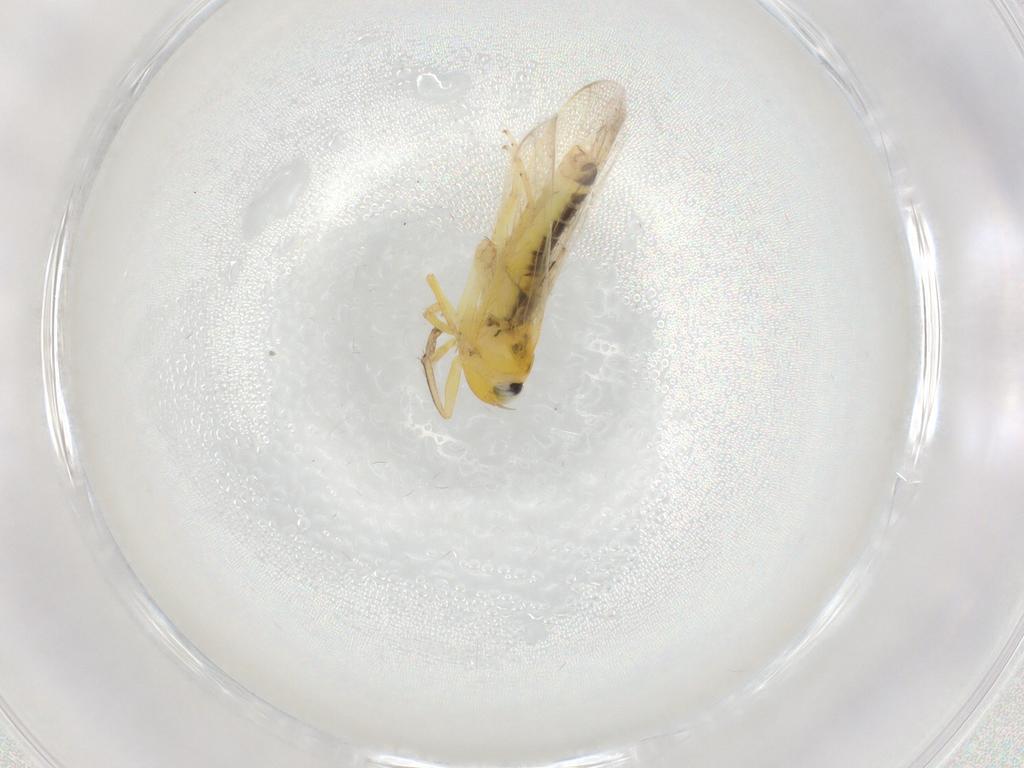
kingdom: Animalia
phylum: Arthropoda
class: Insecta
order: Hemiptera
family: Cicadellidae
